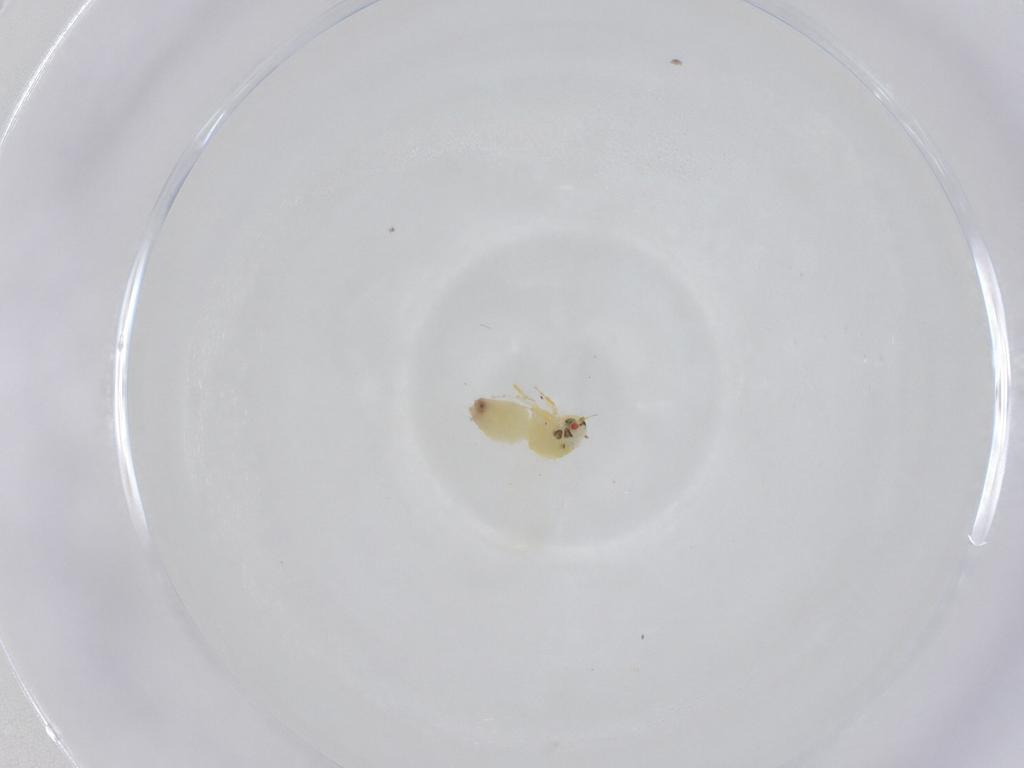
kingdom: Animalia
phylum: Arthropoda
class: Insecta
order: Hemiptera
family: Aleyrodidae
